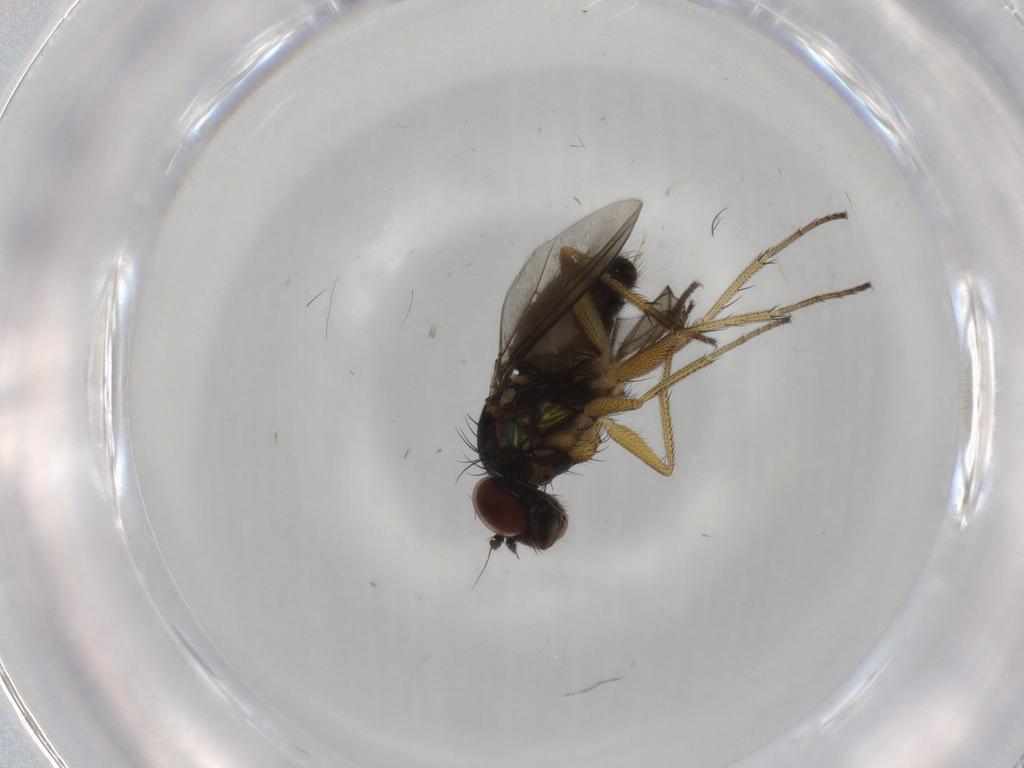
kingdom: Animalia
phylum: Arthropoda
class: Insecta
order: Diptera
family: Dolichopodidae
